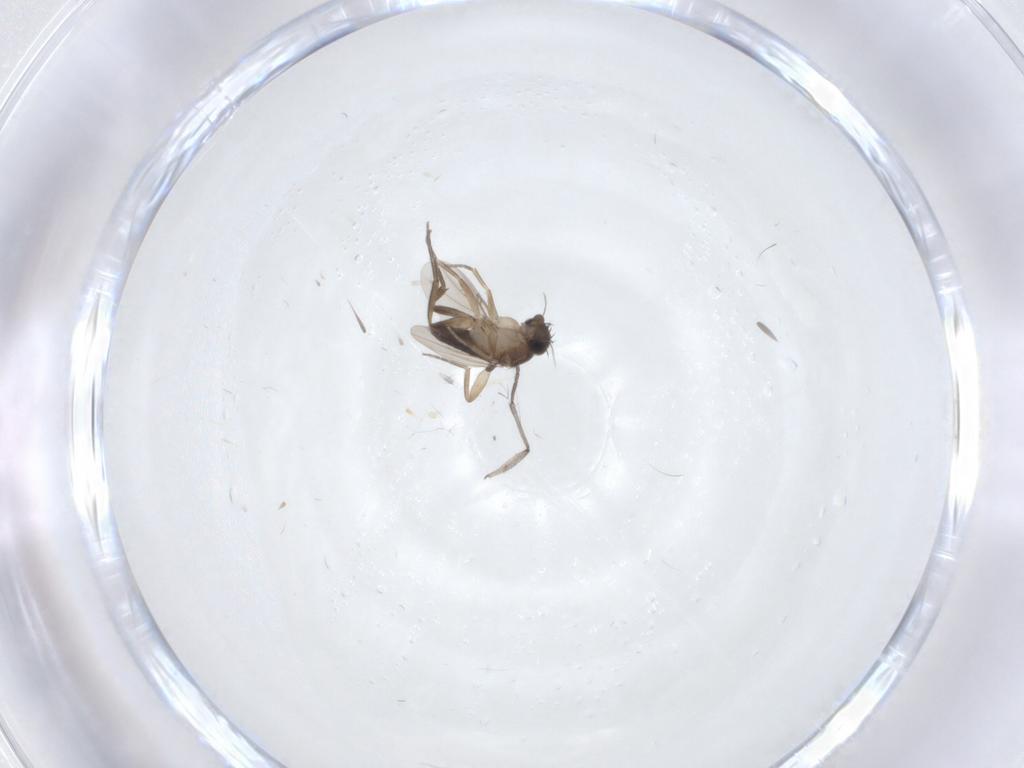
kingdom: Animalia
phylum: Arthropoda
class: Insecta
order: Diptera
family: Phoridae
